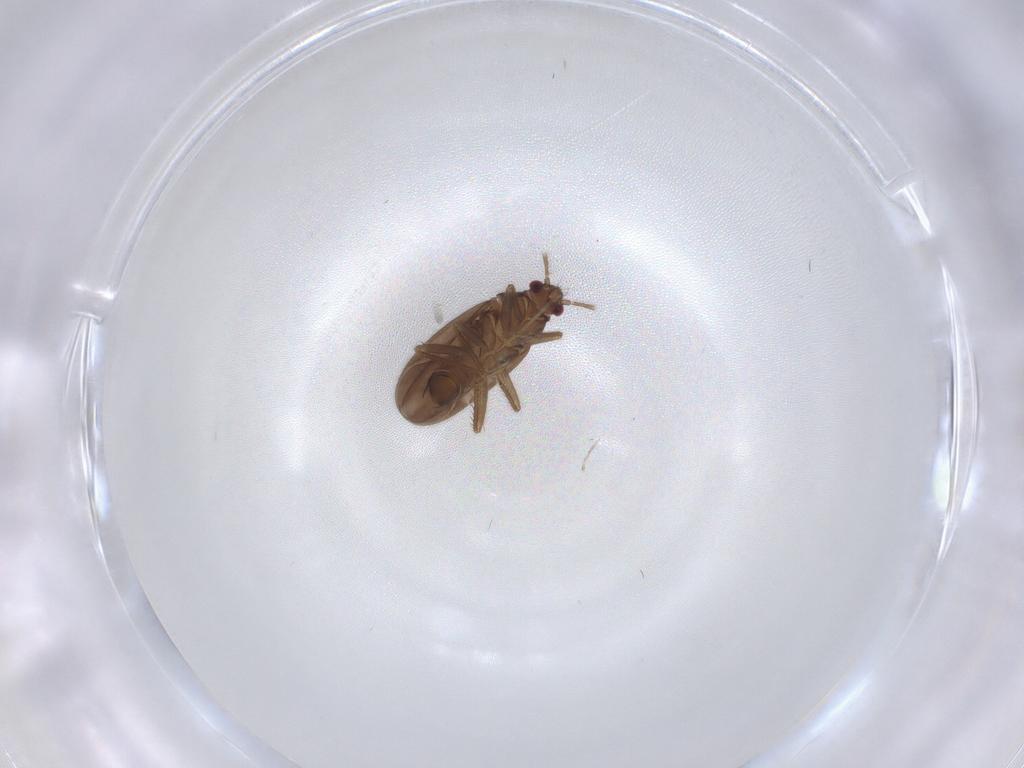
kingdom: Animalia
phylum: Arthropoda
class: Insecta
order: Hemiptera
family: Ceratocombidae
